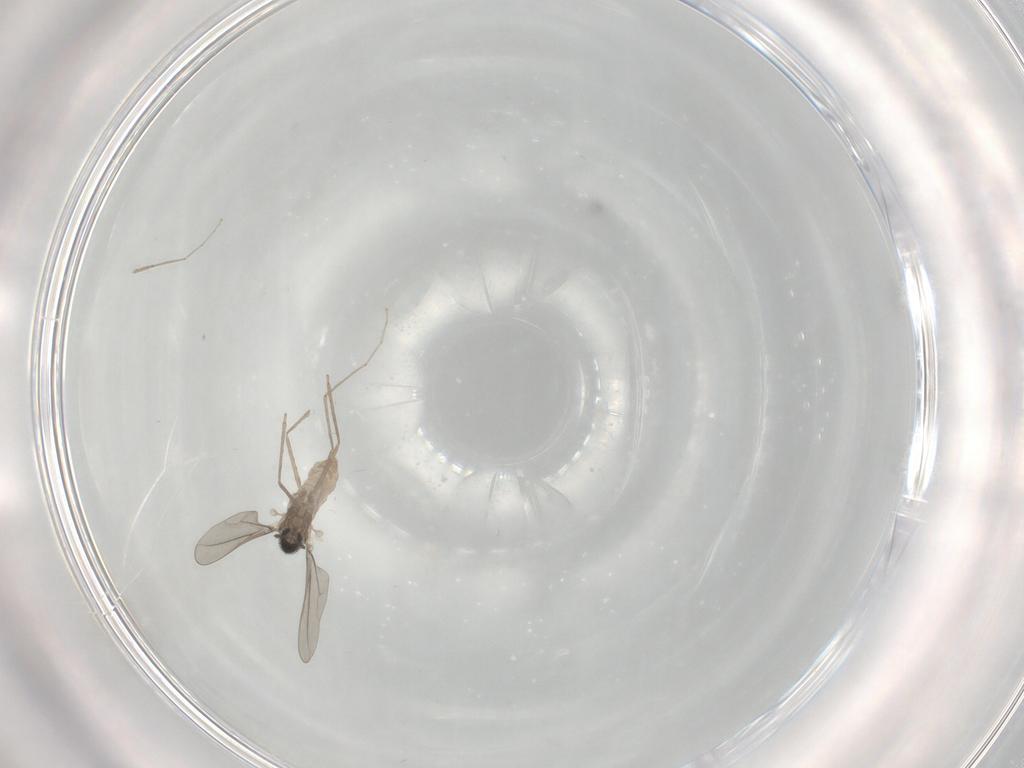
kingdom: Animalia
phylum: Arthropoda
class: Insecta
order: Diptera
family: Cecidomyiidae
